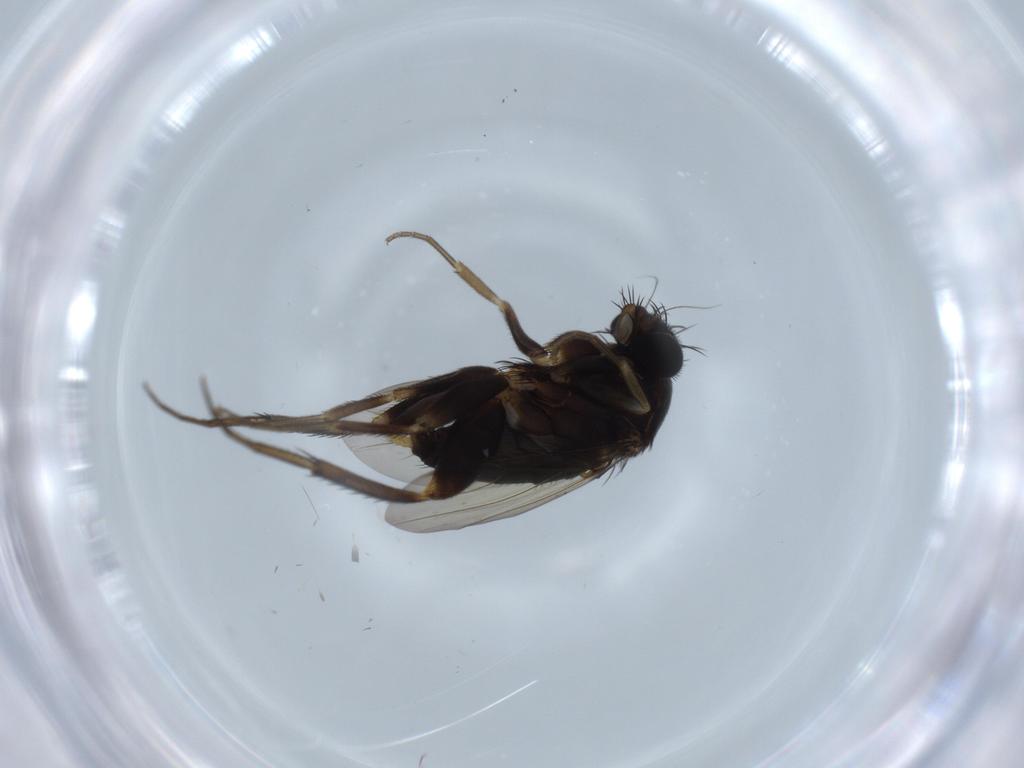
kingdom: Animalia
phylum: Arthropoda
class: Insecta
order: Diptera
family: Phoridae
